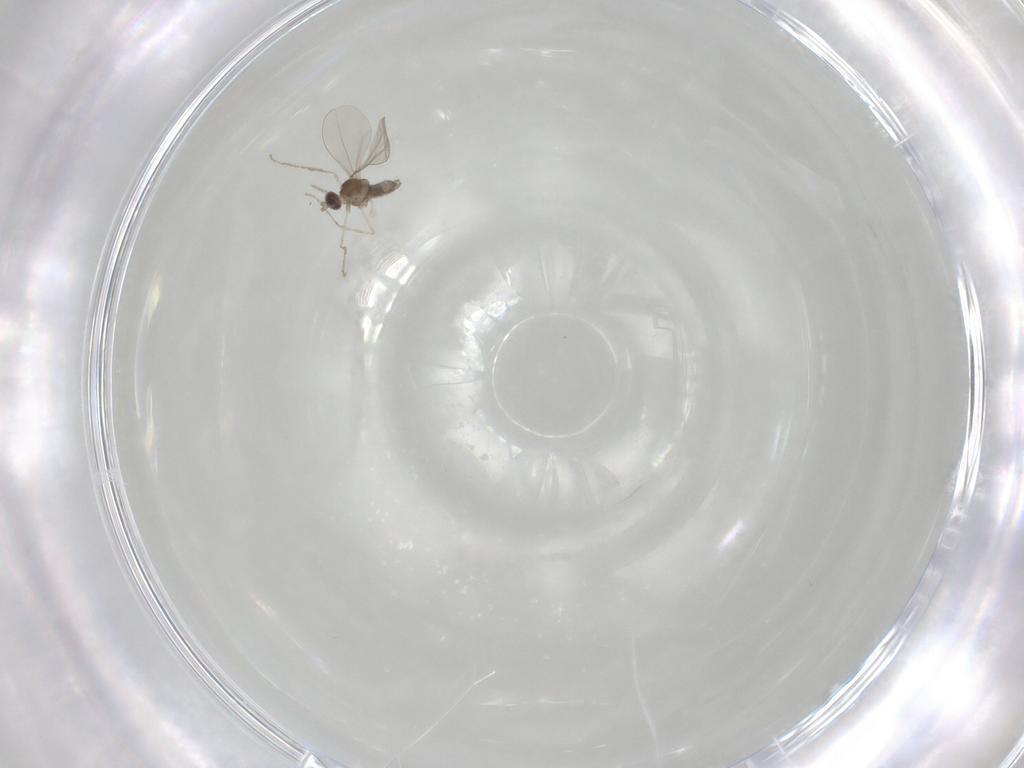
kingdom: Animalia
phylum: Arthropoda
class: Insecta
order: Diptera
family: Cecidomyiidae
